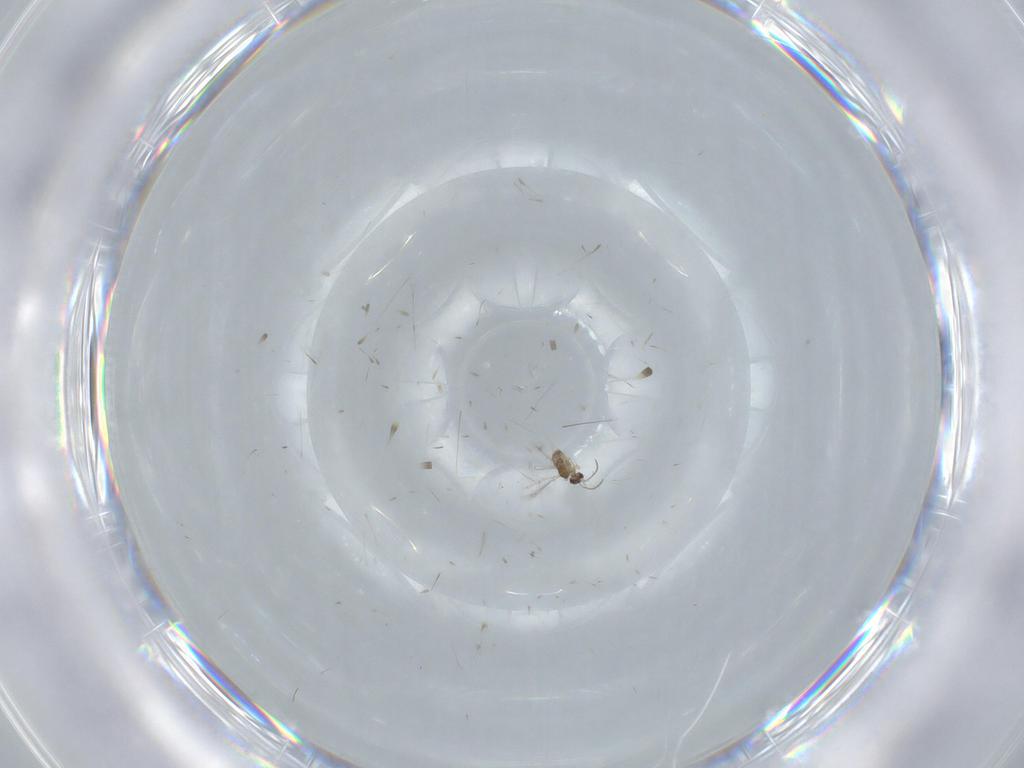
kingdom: Animalia
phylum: Arthropoda
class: Insecta
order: Hymenoptera
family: Mymaridae
